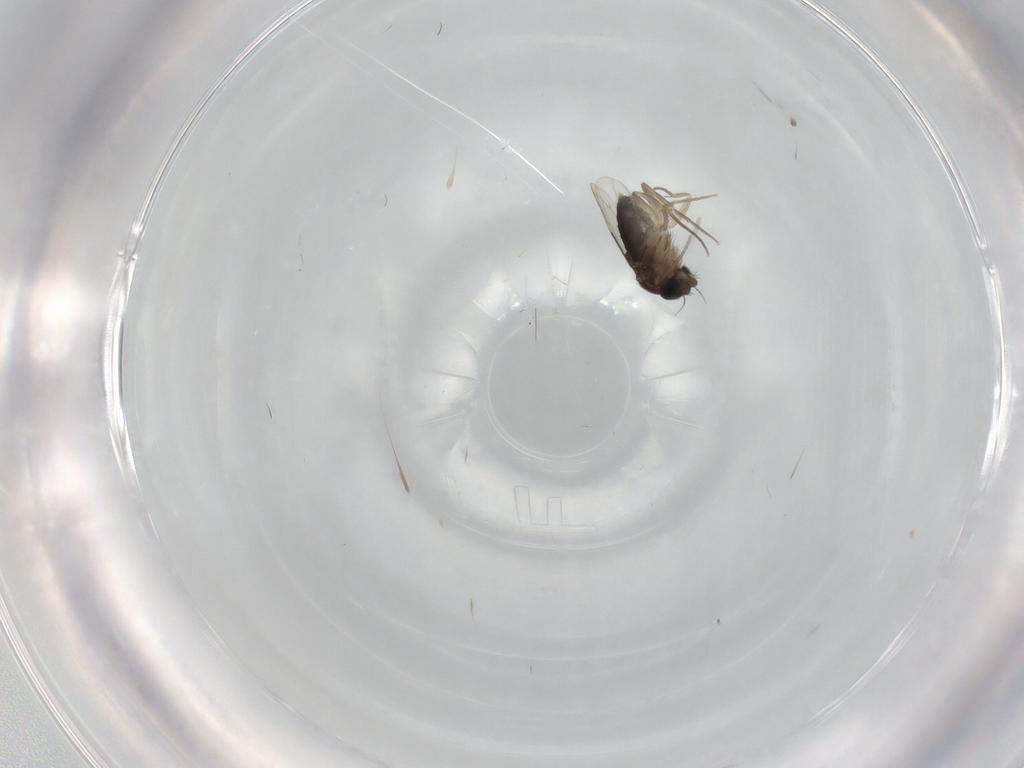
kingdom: Animalia
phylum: Arthropoda
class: Insecta
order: Diptera
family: Phoridae
